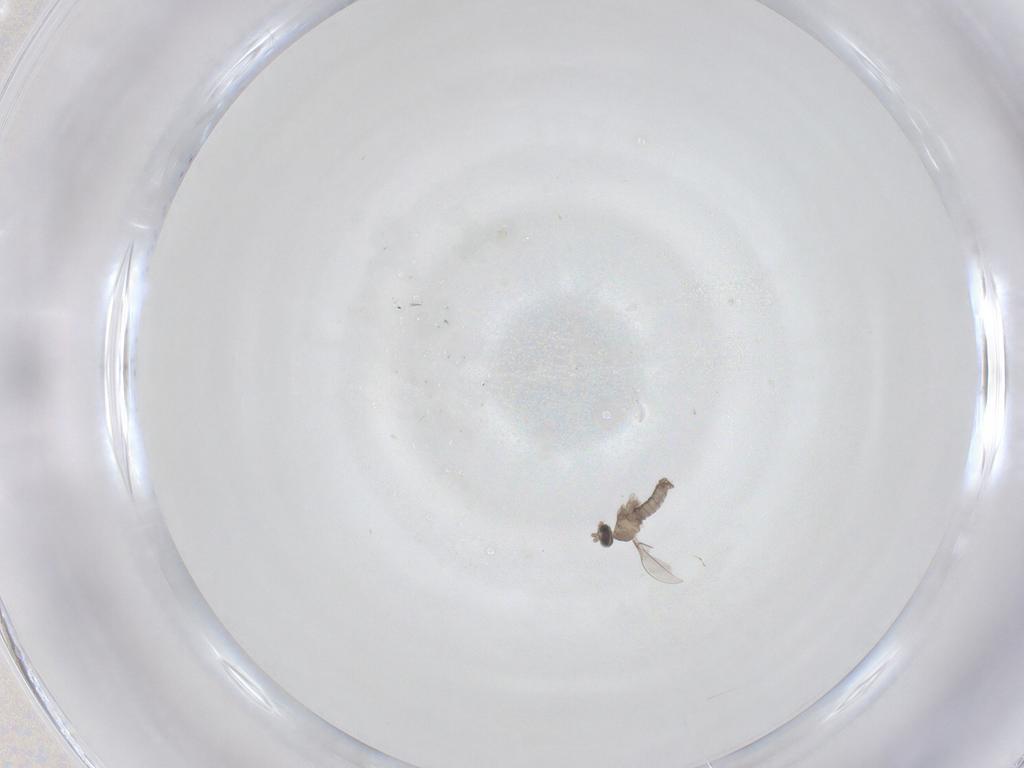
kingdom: Animalia
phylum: Arthropoda
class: Insecta
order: Diptera
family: Cecidomyiidae
